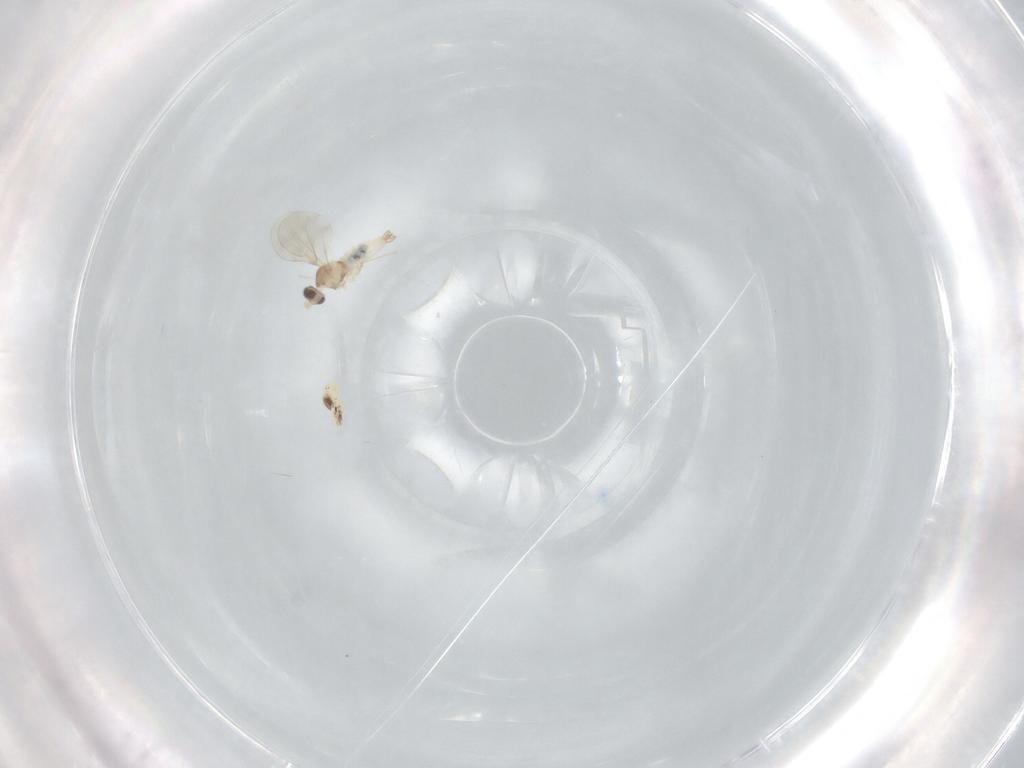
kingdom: Animalia
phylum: Arthropoda
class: Insecta
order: Diptera
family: Cecidomyiidae
